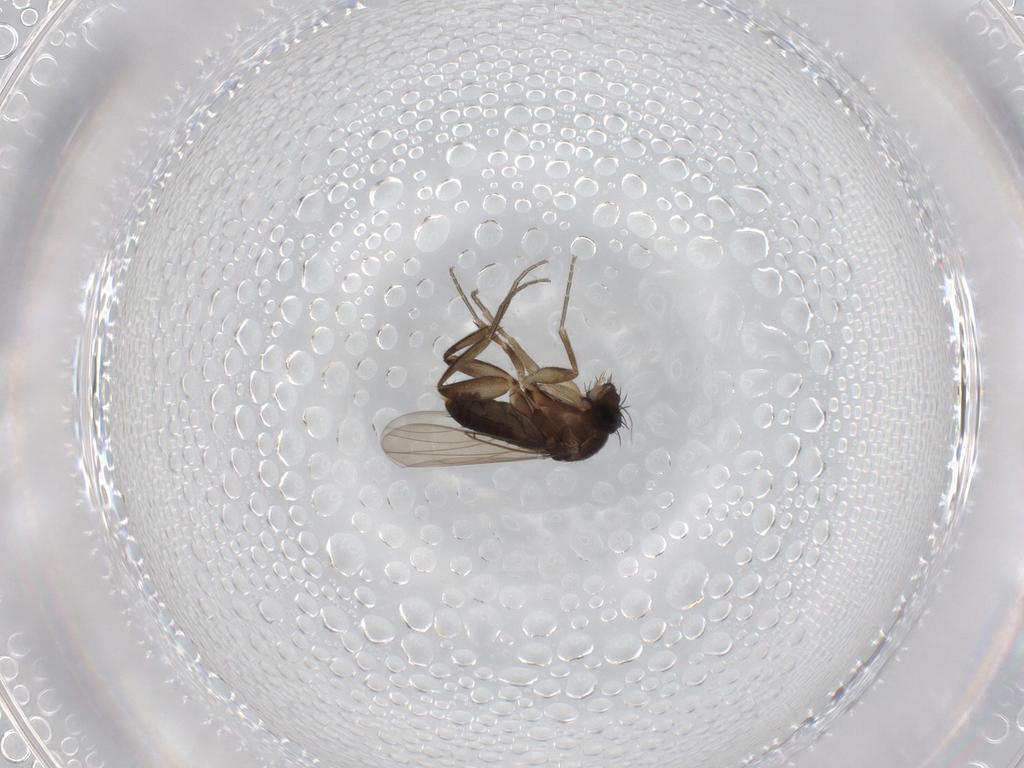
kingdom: Animalia
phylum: Arthropoda
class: Insecta
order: Diptera
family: Phoridae
